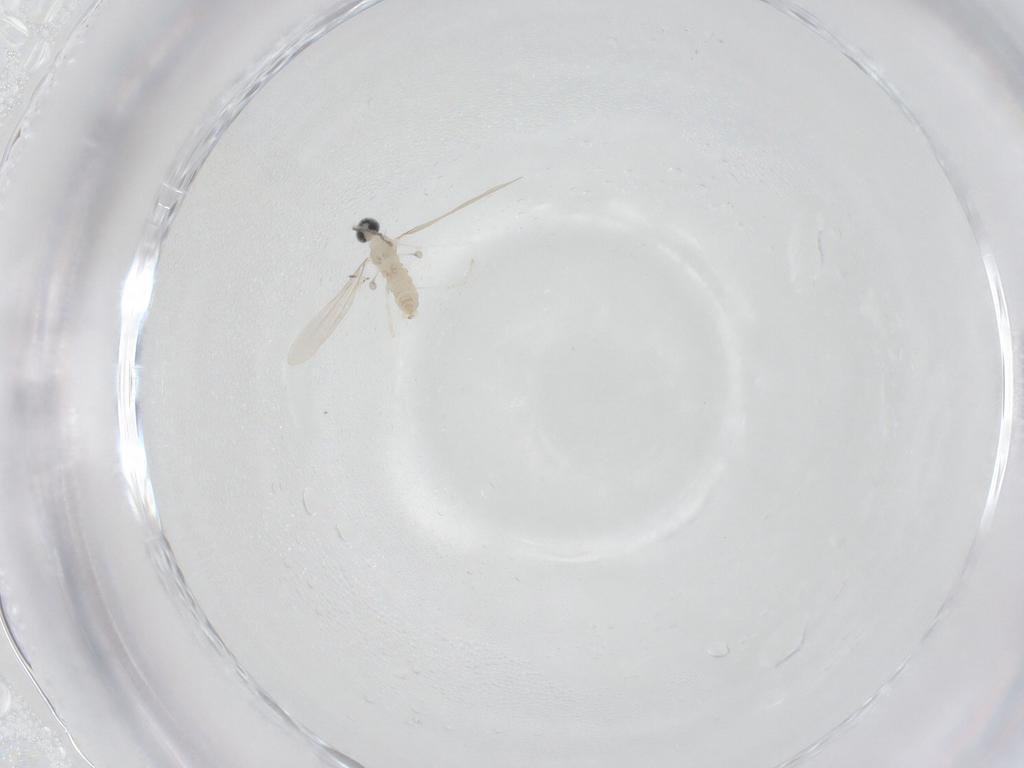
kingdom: Animalia
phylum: Arthropoda
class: Insecta
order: Diptera
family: Cecidomyiidae
